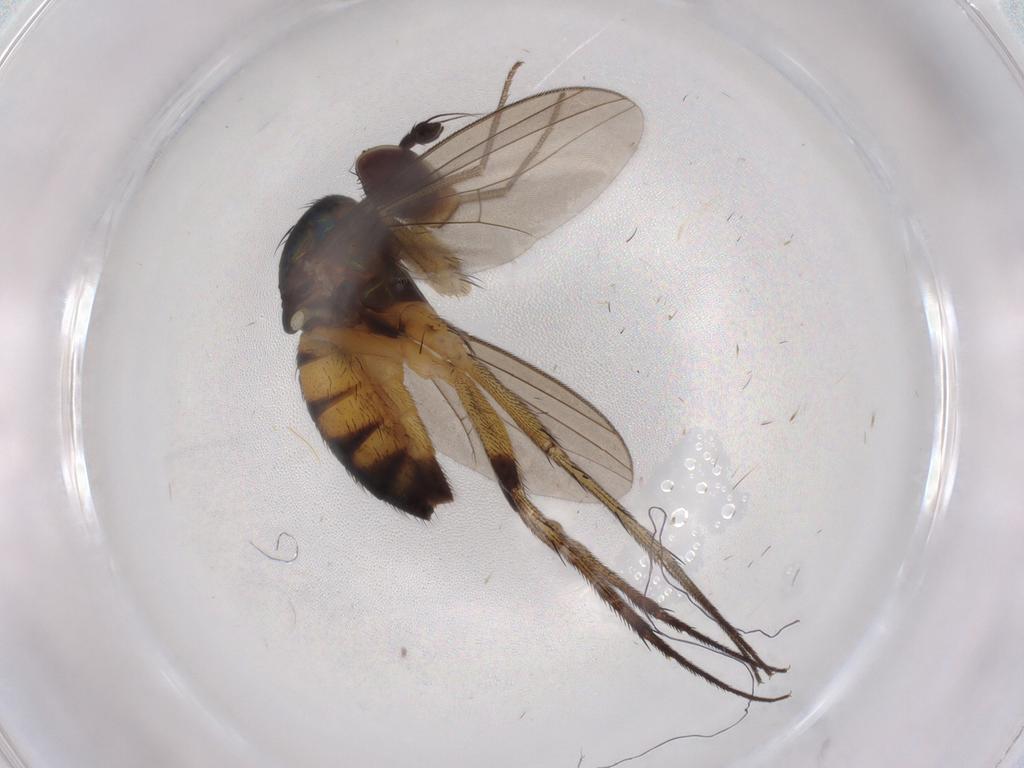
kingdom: Animalia
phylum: Arthropoda
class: Insecta
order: Diptera
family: Dolichopodidae
